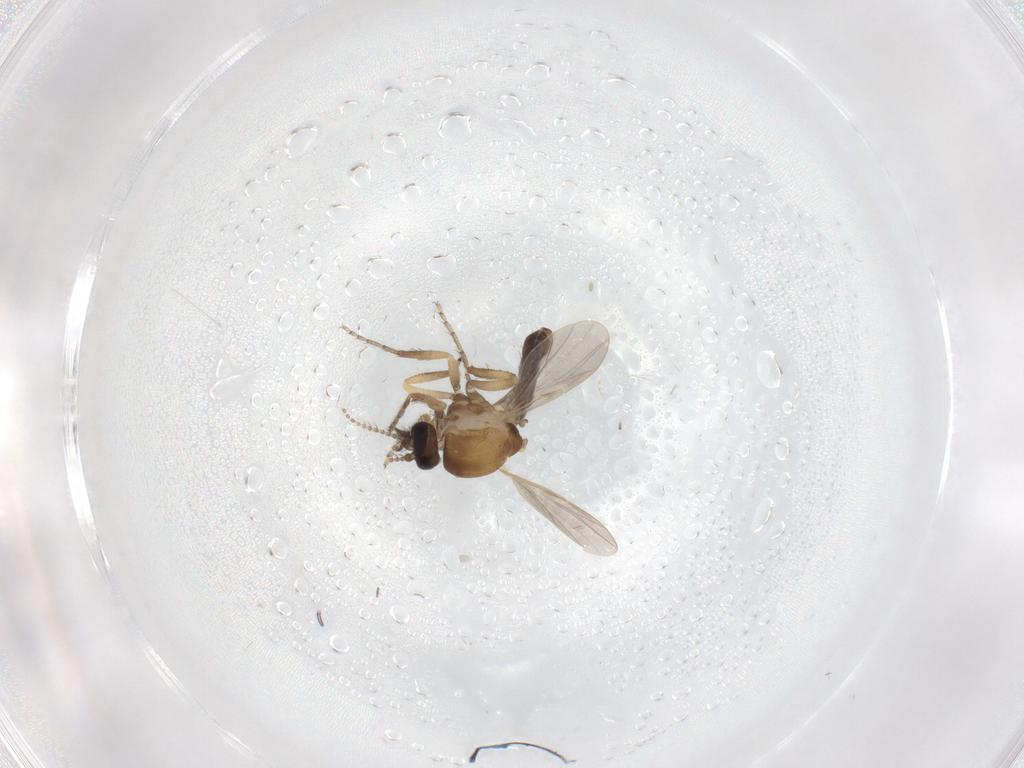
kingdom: Animalia
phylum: Arthropoda
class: Insecta
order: Diptera
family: Ceratopogonidae
